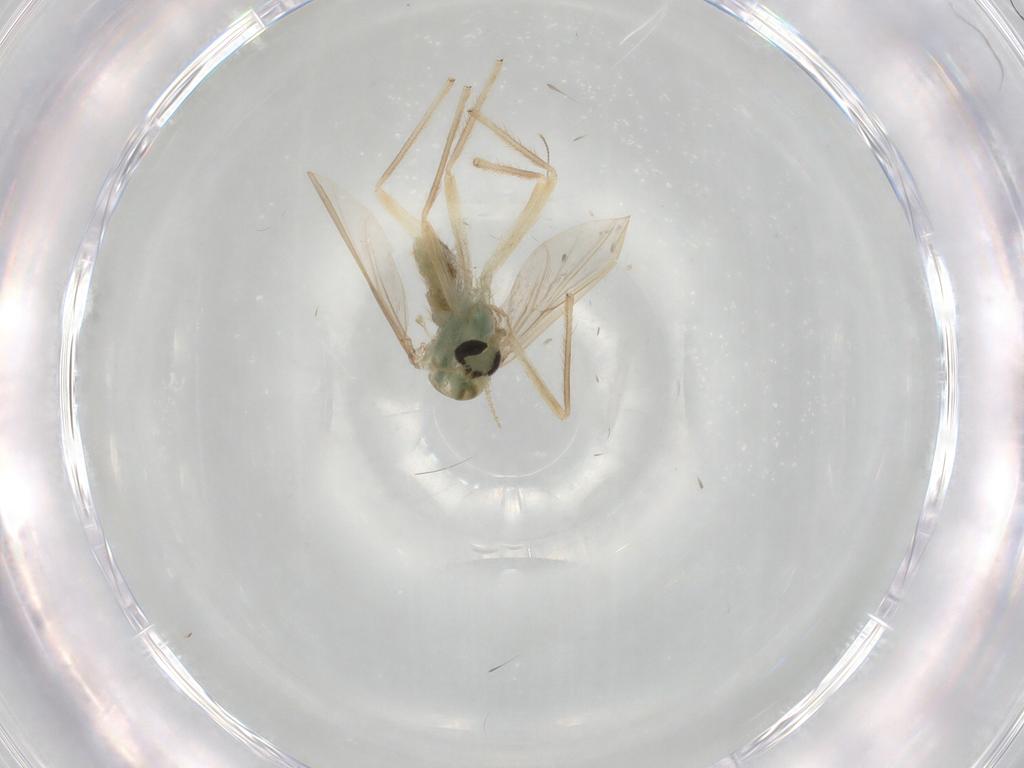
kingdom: Animalia
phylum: Arthropoda
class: Insecta
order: Diptera
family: Chironomidae
